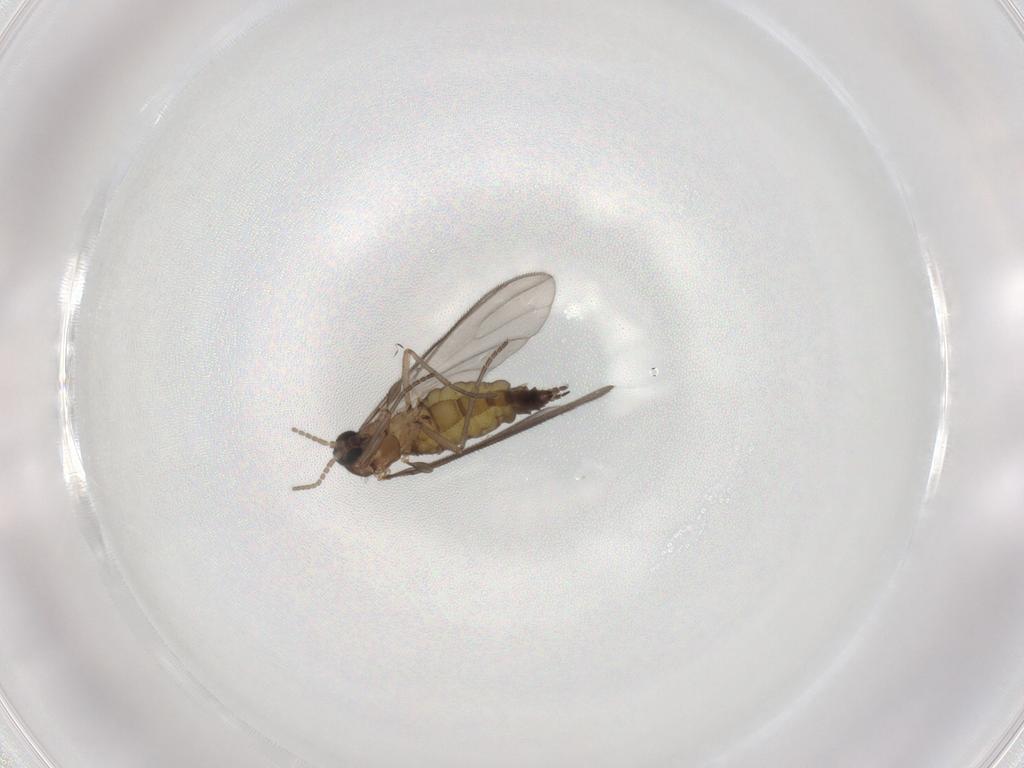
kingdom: Animalia
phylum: Arthropoda
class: Insecta
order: Diptera
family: Sciaridae
